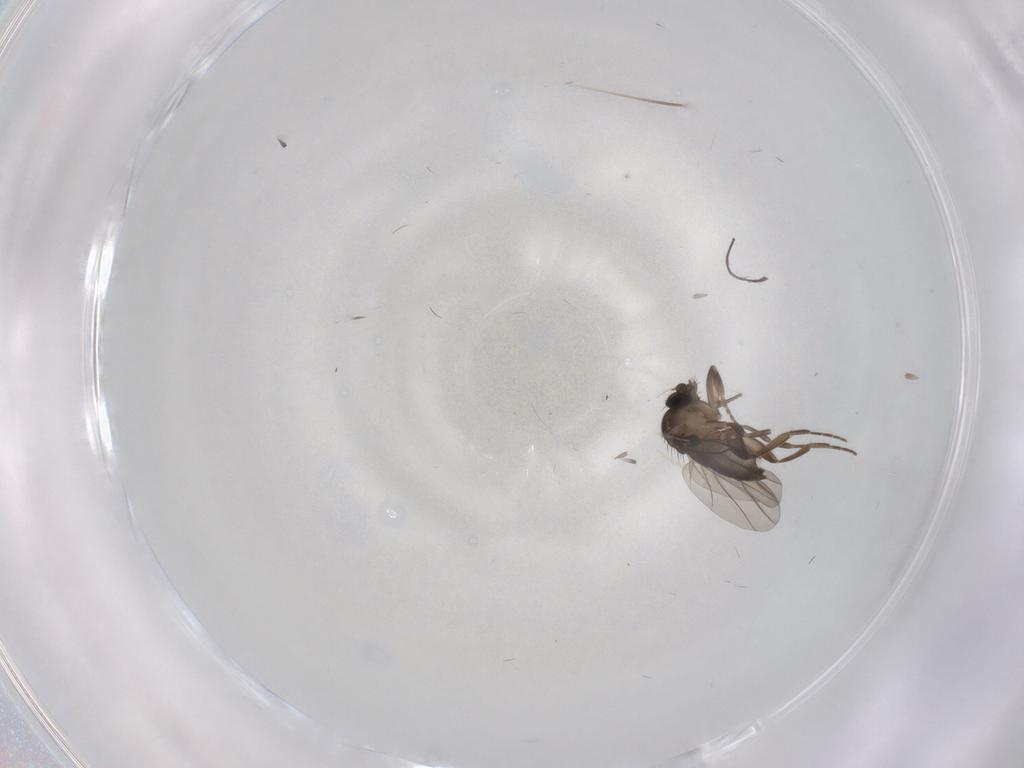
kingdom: Animalia
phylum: Arthropoda
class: Insecta
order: Diptera
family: Phoridae
